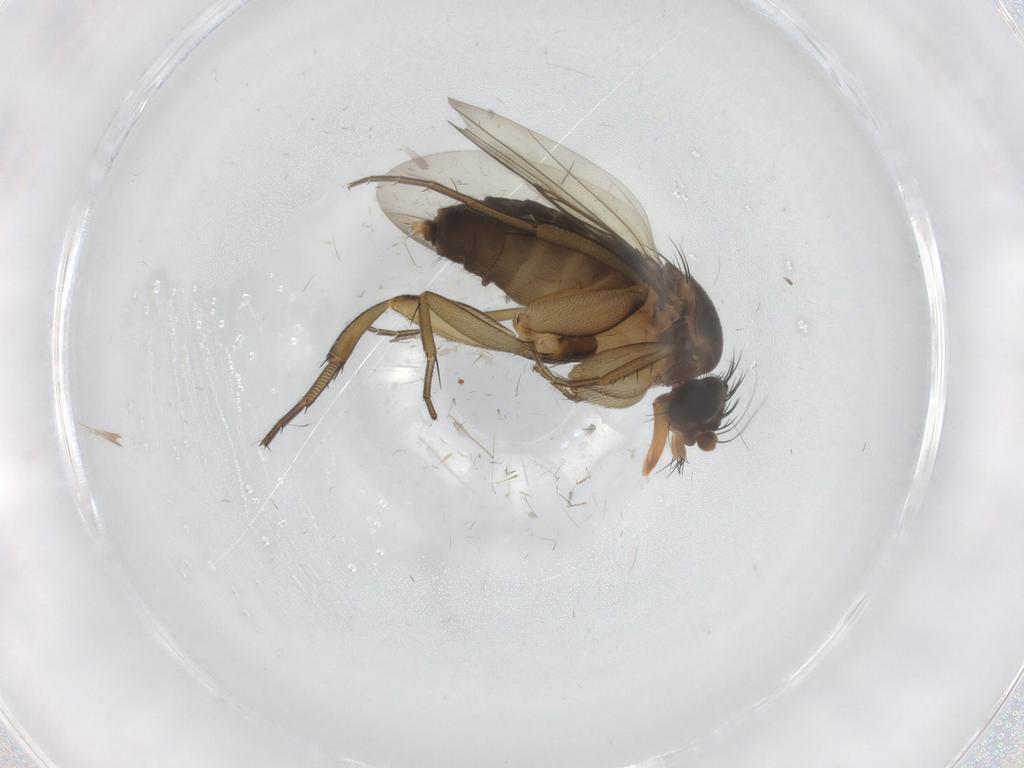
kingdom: Animalia
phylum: Arthropoda
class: Insecta
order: Diptera
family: Phoridae
